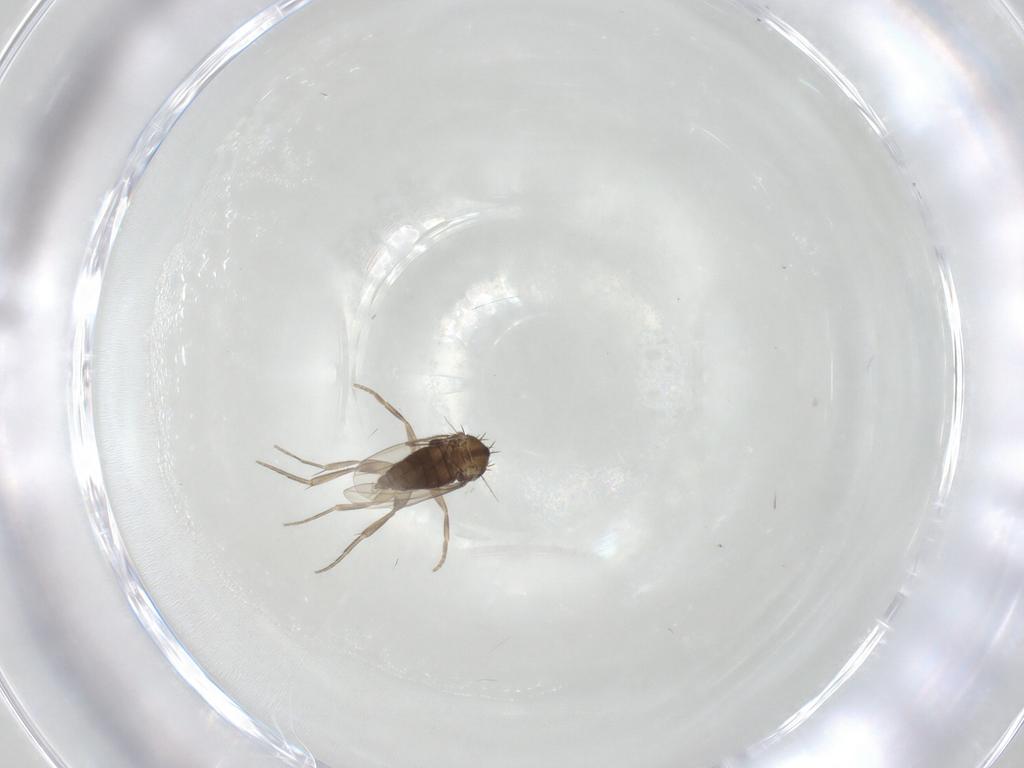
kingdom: Animalia
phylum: Arthropoda
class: Insecta
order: Diptera
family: Phoridae
